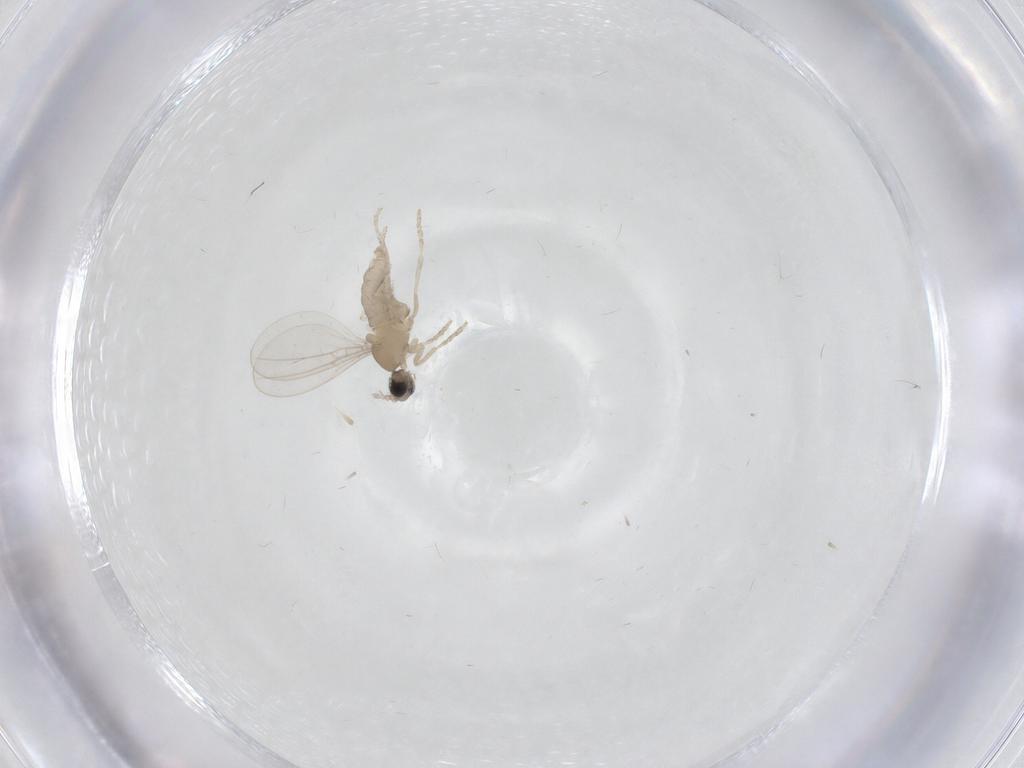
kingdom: Animalia
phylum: Arthropoda
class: Insecta
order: Diptera
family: Cecidomyiidae
